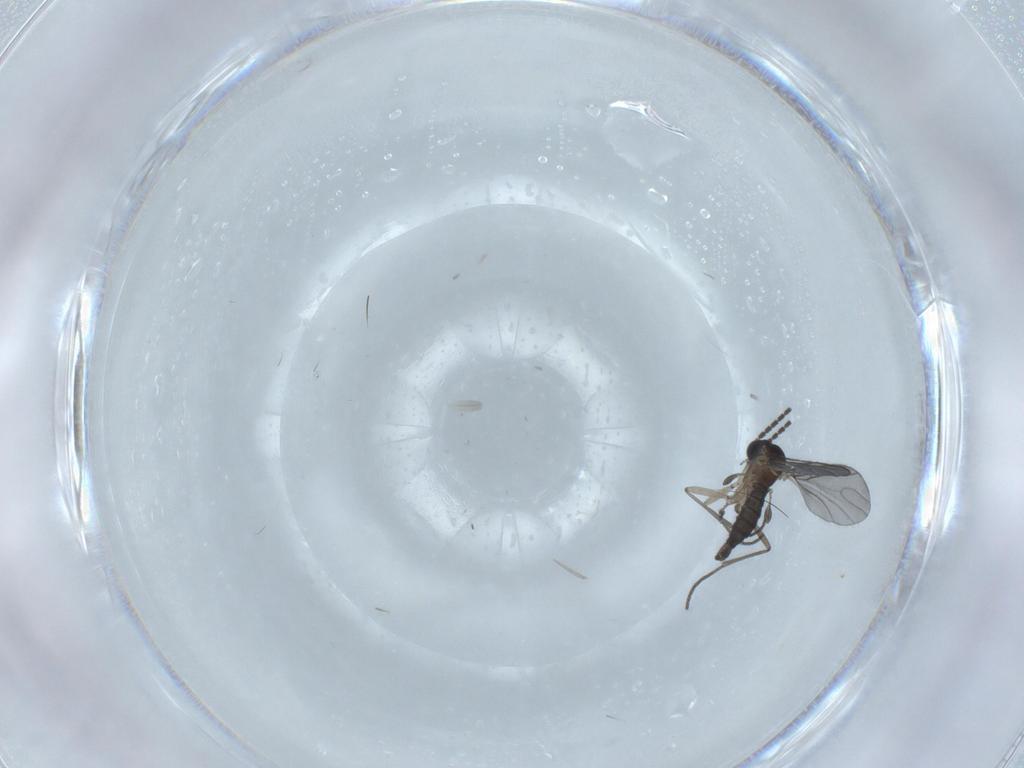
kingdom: Animalia
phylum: Arthropoda
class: Insecta
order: Diptera
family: Sciaridae
